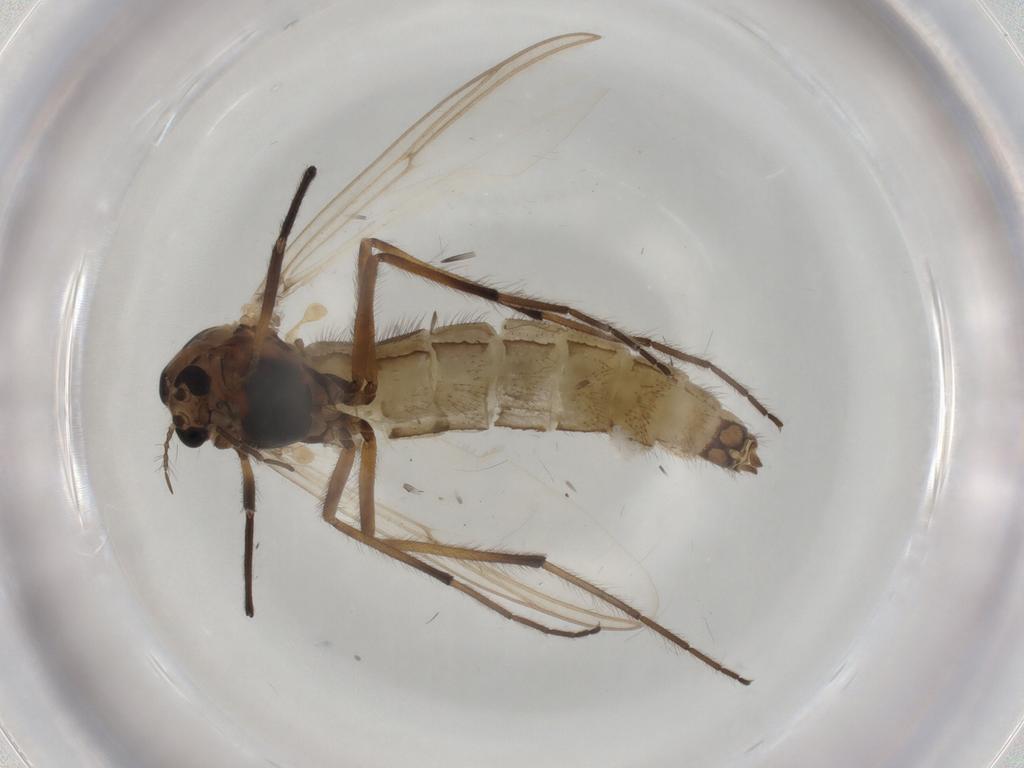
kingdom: Animalia
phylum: Arthropoda
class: Insecta
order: Diptera
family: Chironomidae
